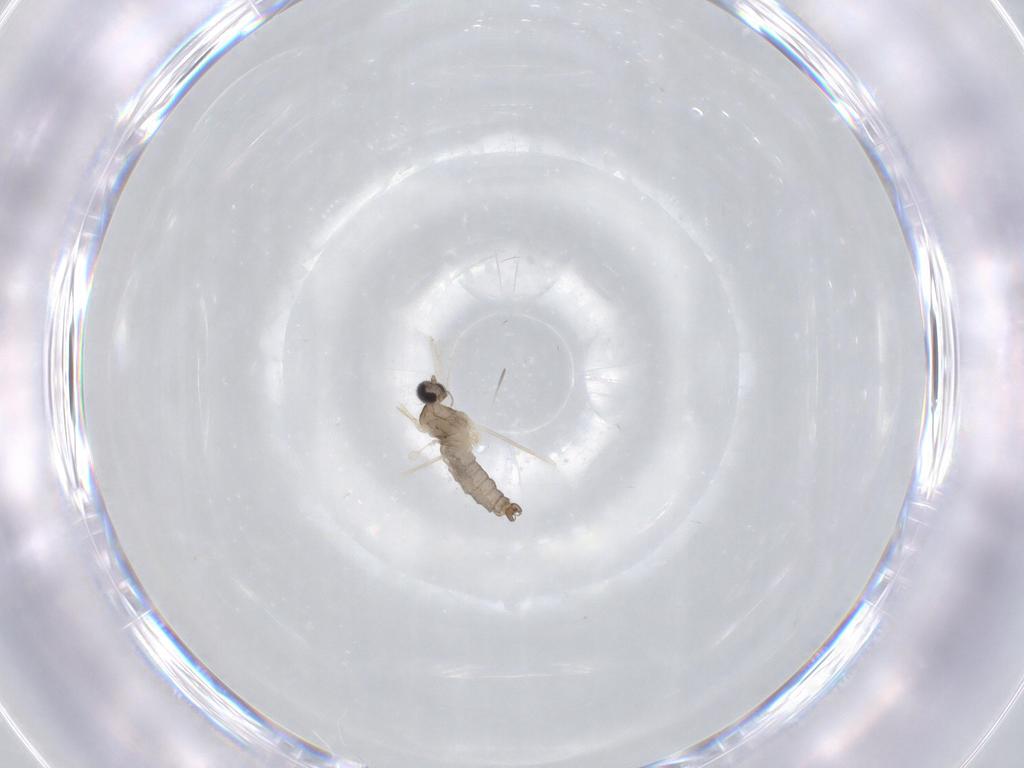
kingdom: Animalia
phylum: Arthropoda
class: Insecta
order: Diptera
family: Cecidomyiidae
